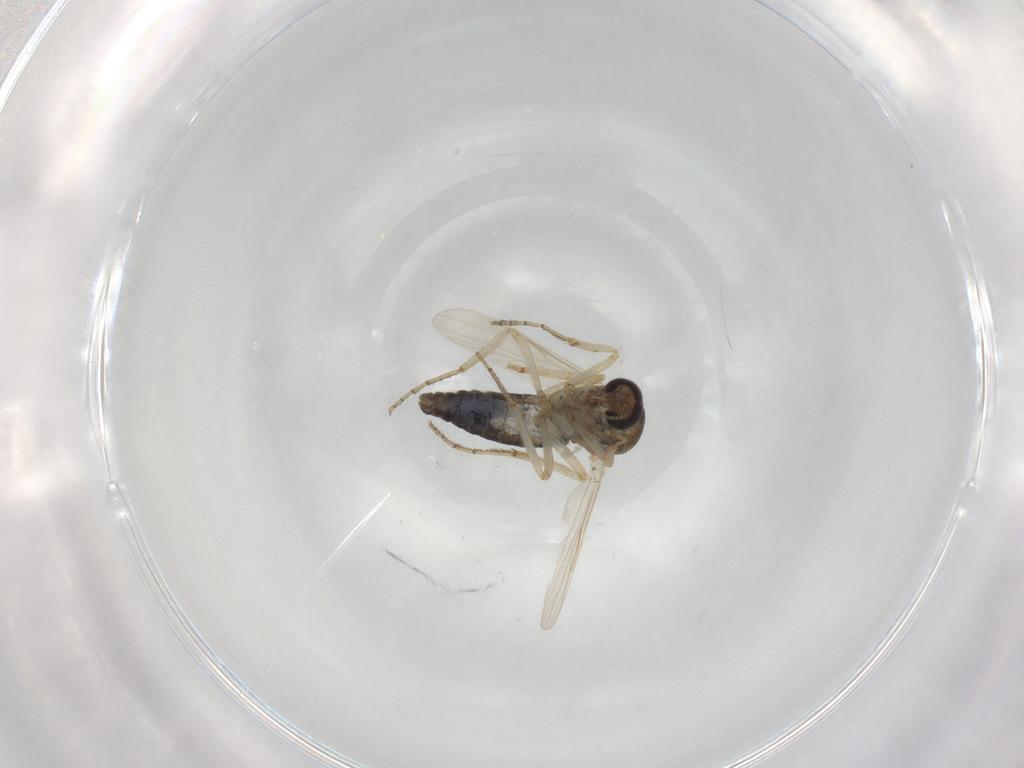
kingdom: Animalia
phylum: Arthropoda
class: Insecta
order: Diptera
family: Ceratopogonidae
